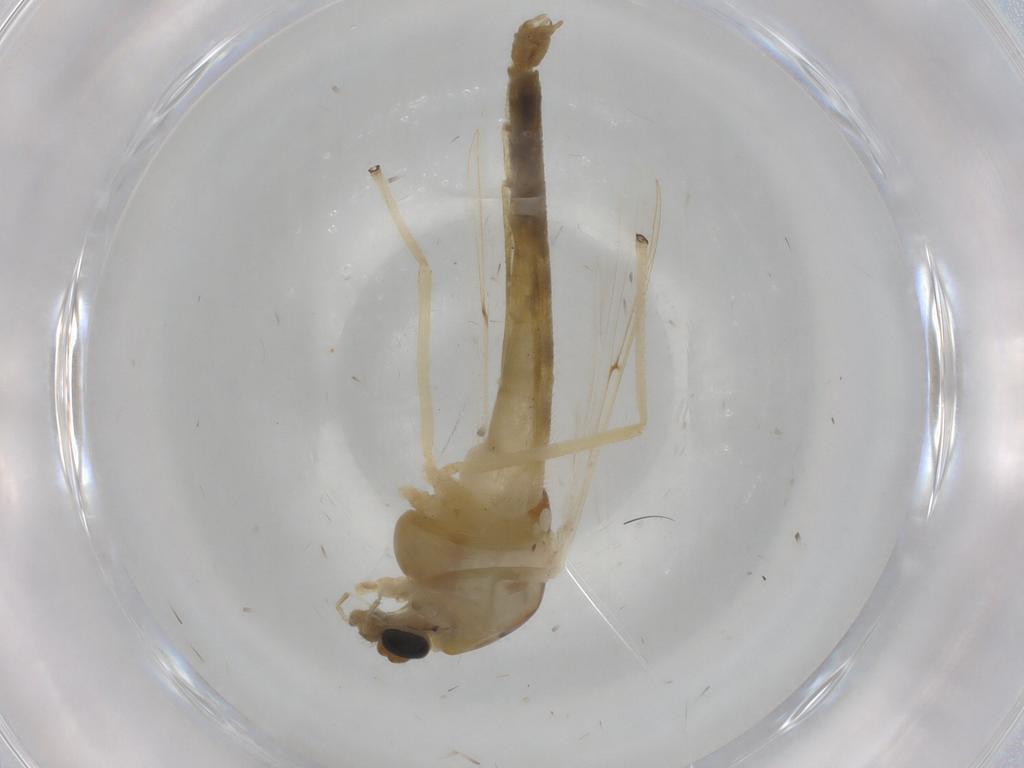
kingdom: Animalia
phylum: Arthropoda
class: Insecta
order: Diptera
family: Phoridae
